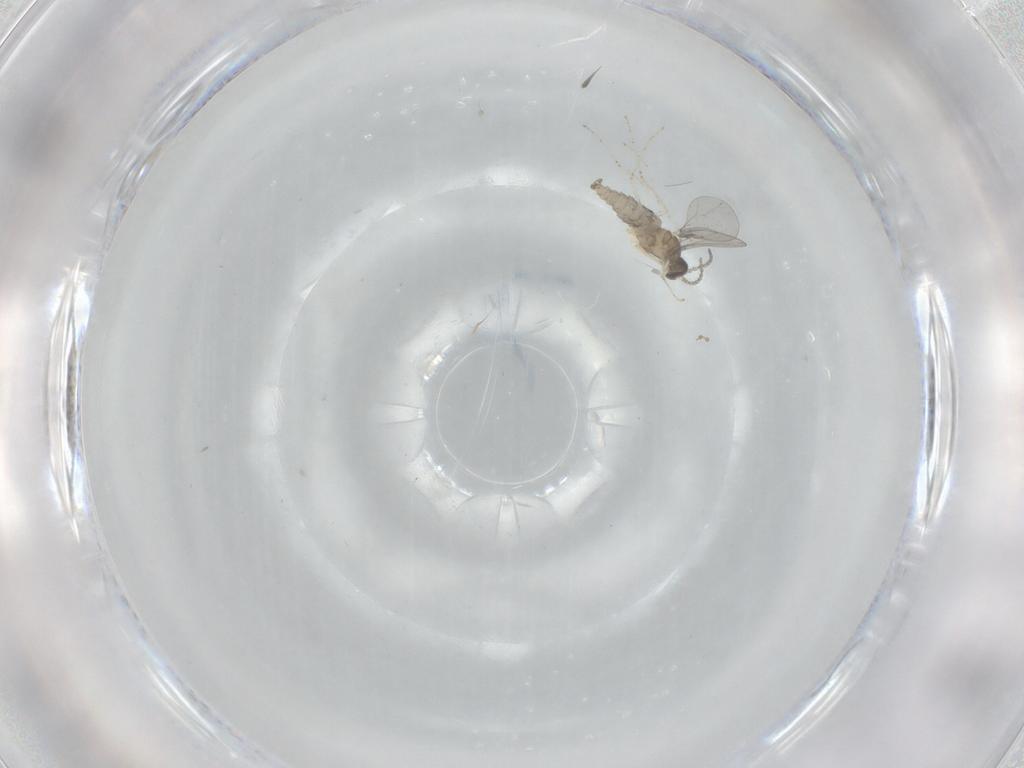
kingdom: Animalia
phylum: Arthropoda
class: Insecta
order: Diptera
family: Cecidomyiidae
